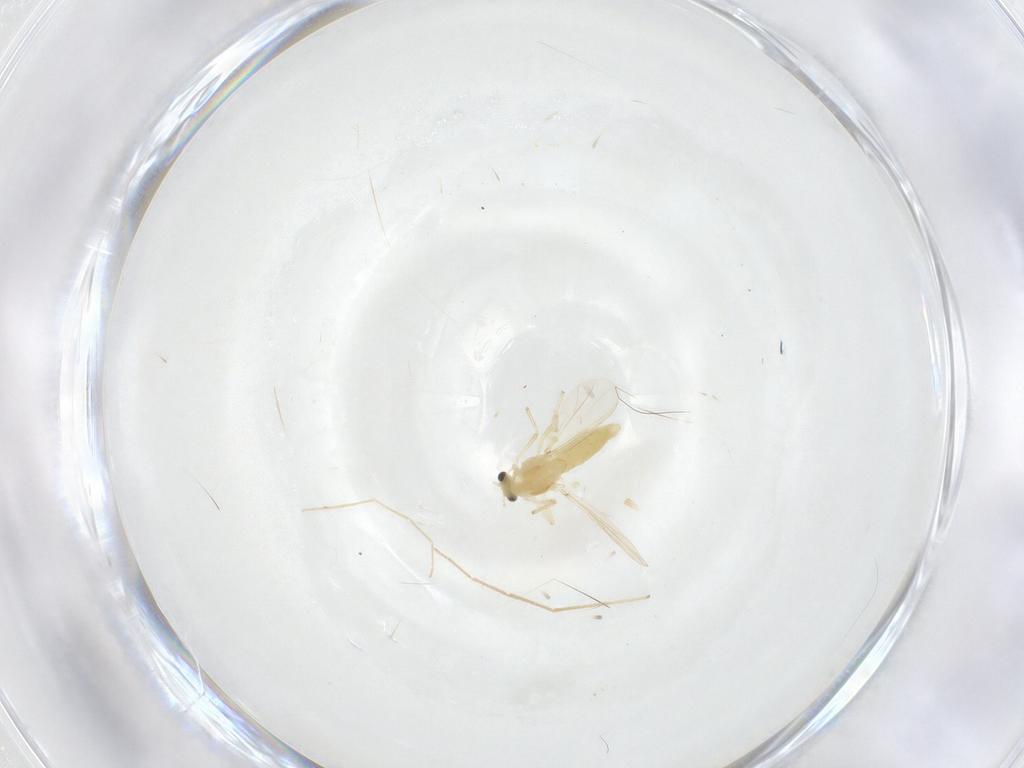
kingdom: Animalia
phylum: Arthropoda
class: Insecta
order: Diptera
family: Chironomidae
